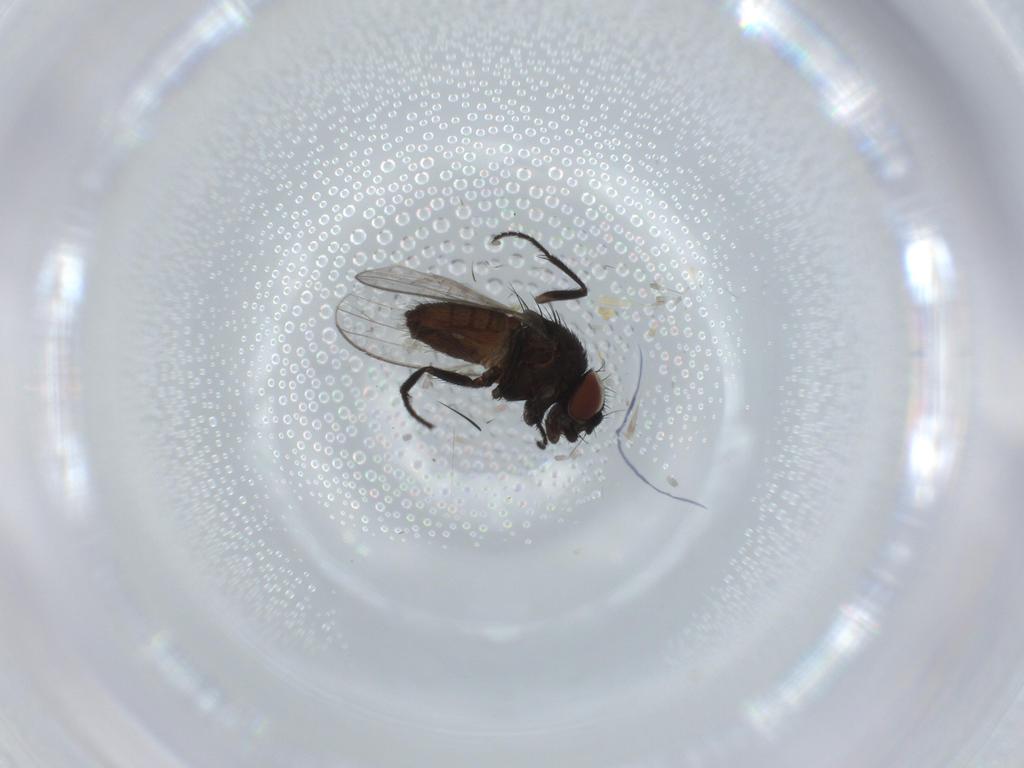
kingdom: Animalia
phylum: Arthropoda
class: Insecta
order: Diptera
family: Milichiidae
